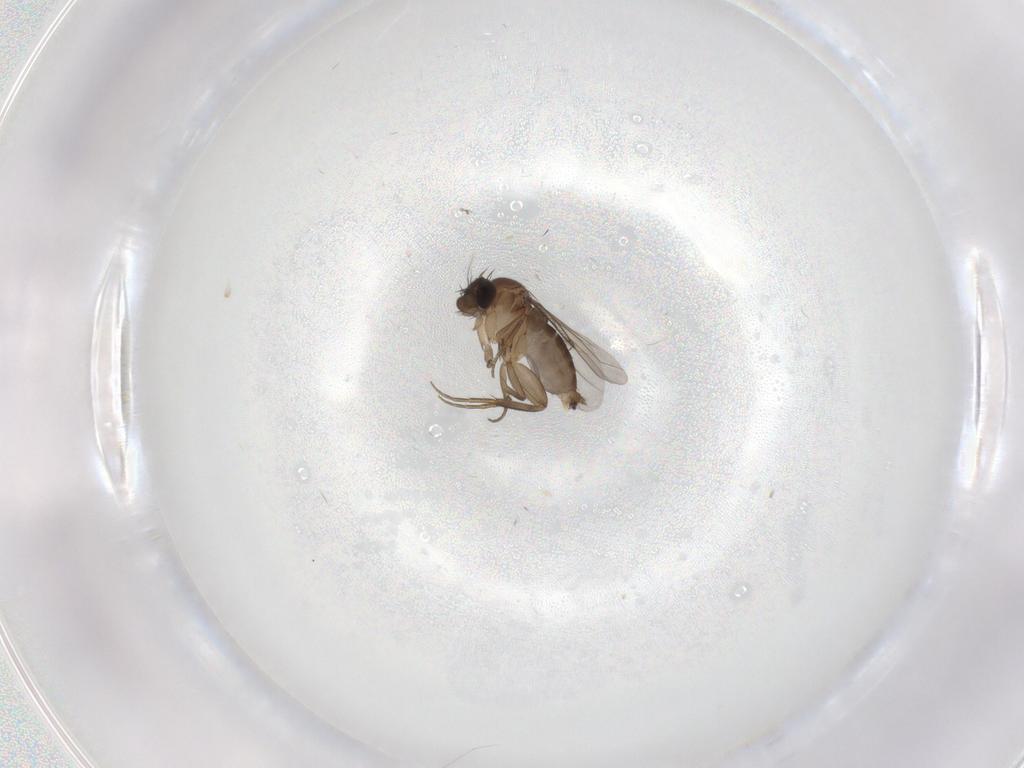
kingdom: Animalia
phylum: Arthropoda
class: Insecta
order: Diptera
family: Phoridae
